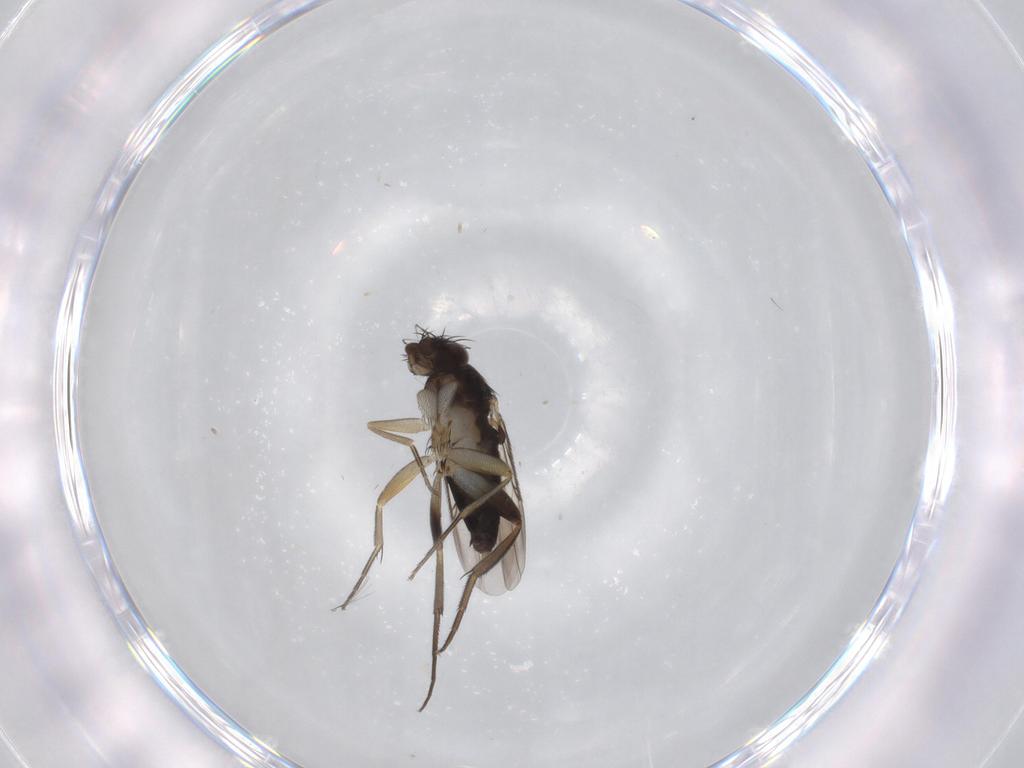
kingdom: Animalia
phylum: Arthropoda
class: Insecta
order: Diptera
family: Phoridae
